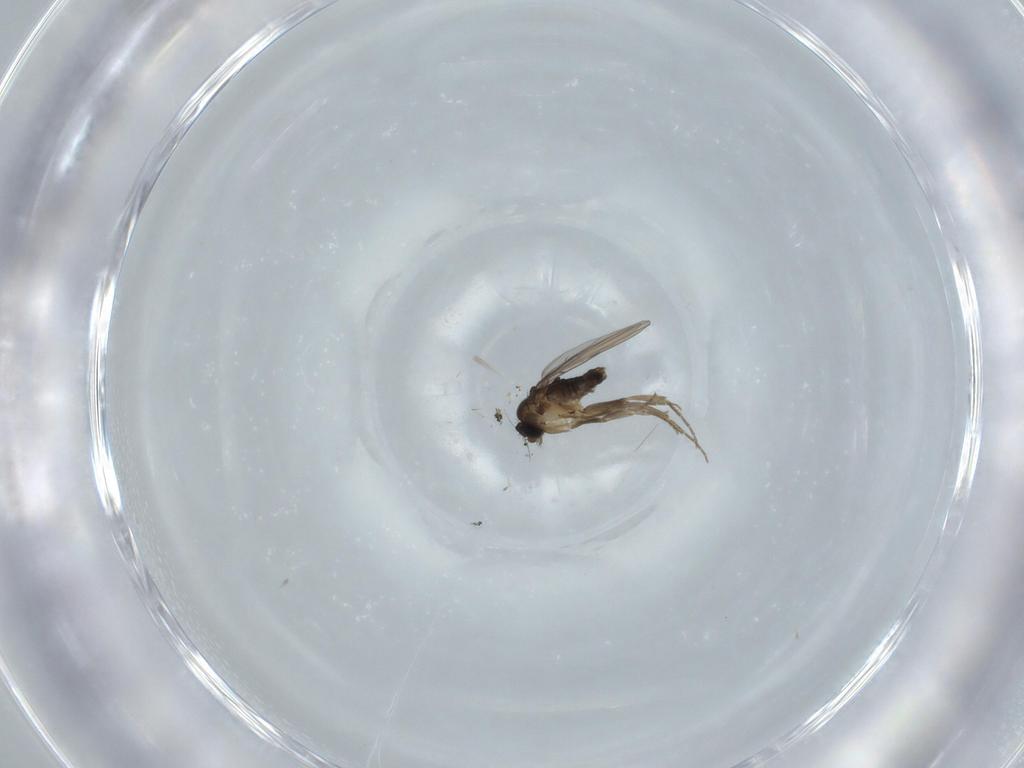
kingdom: Animalia
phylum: Arthropoda
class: Insecta
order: Diptera
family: Phoridae
